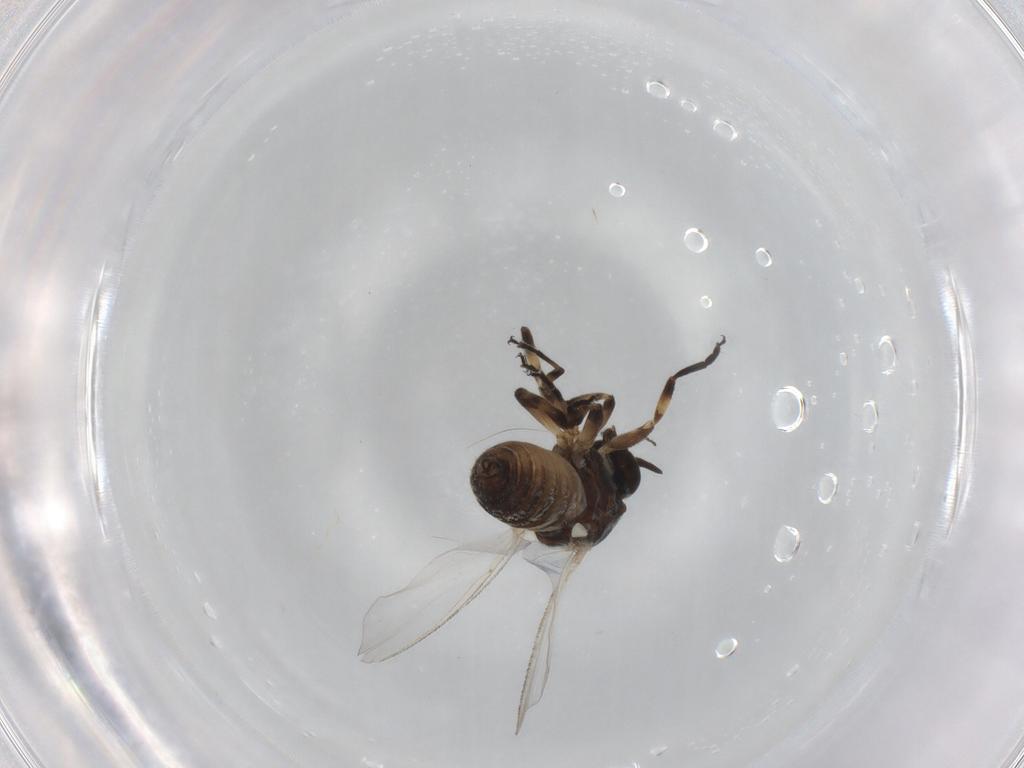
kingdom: Animalia
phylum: Arthropoda
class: Insecta
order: Diptera
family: Simuliidae
